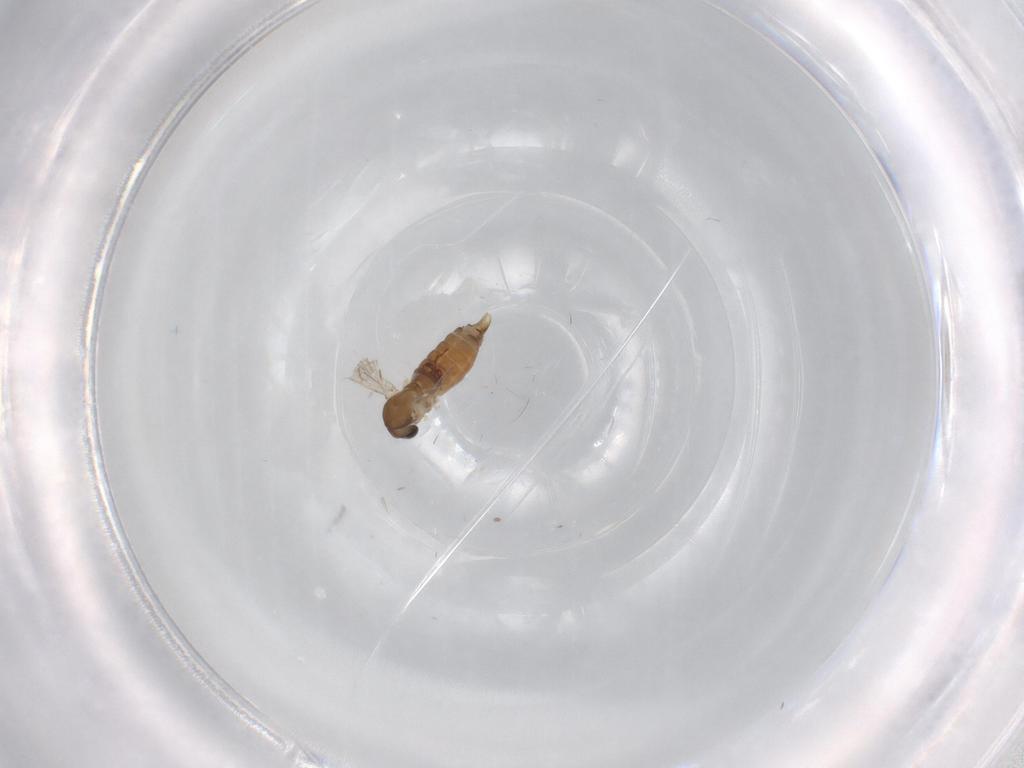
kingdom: Animalia
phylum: Arthropoda
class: Insecta
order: Diptera
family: Psychodidae
